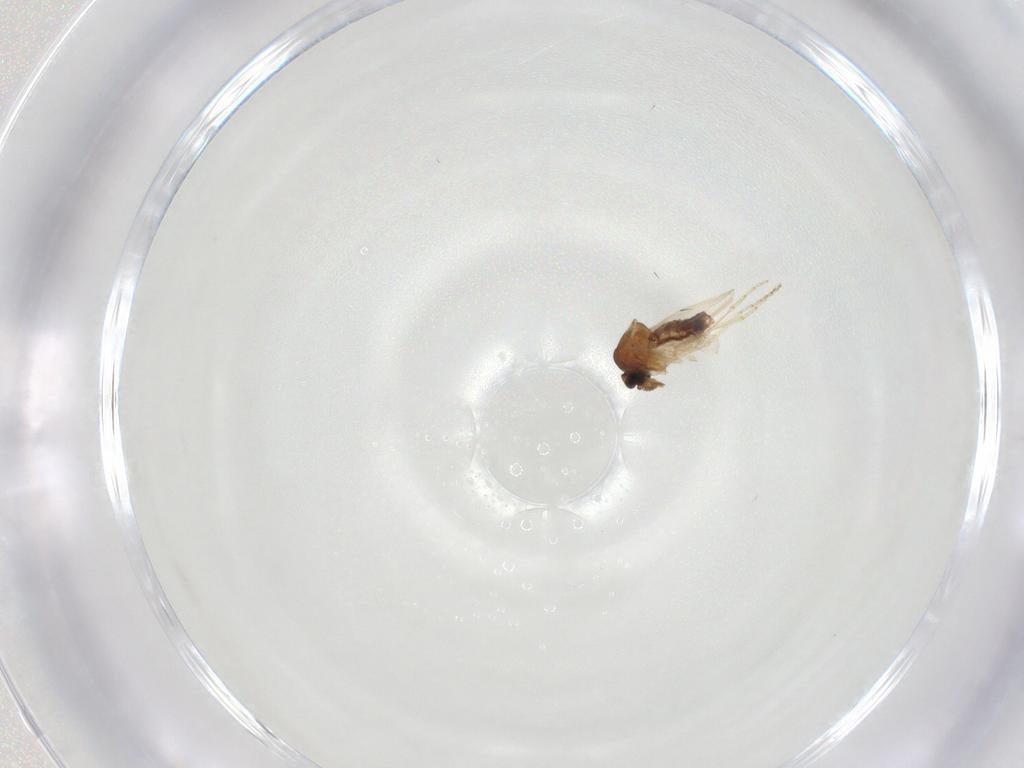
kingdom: Animalia
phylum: Arthropoda
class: Insecta
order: Diptera
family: Ceratopogonidae
